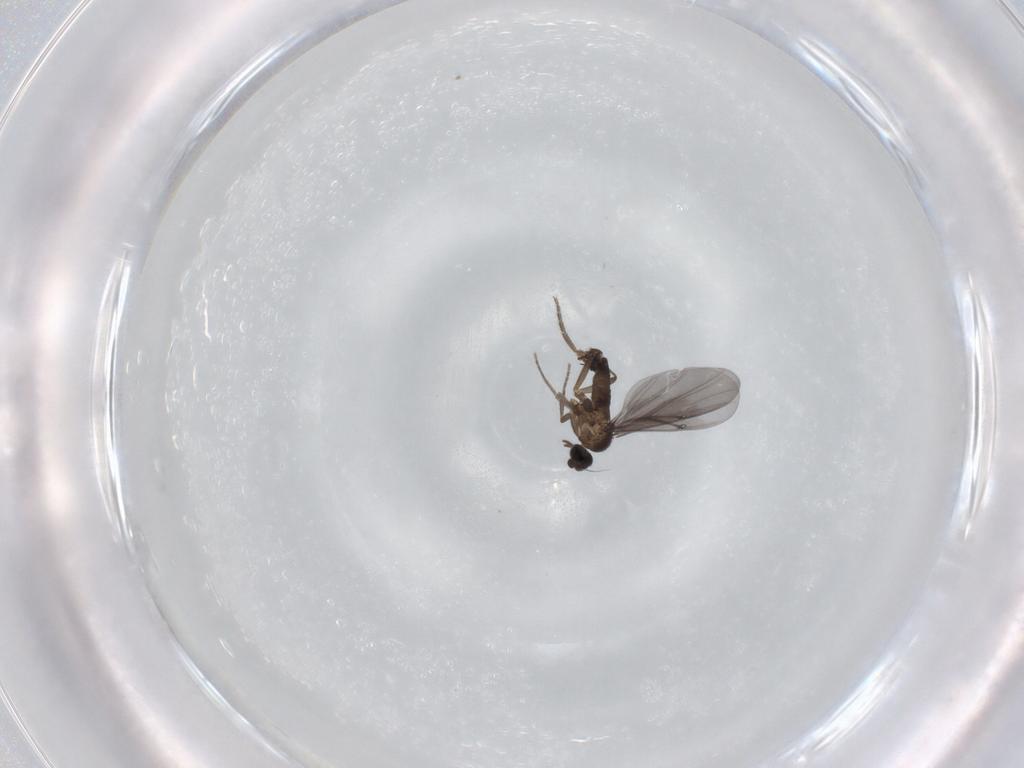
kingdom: Animalia
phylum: Arthropoda
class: Insecta
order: Diptera
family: Phoridae
